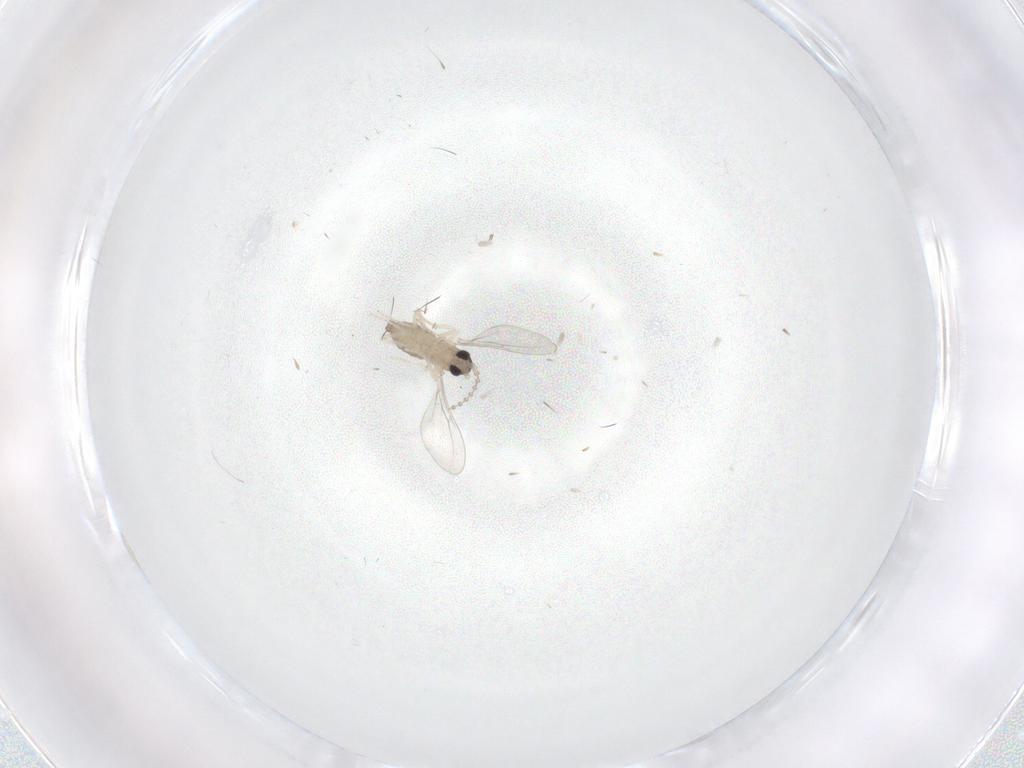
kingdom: Animalia
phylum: Arthropoda
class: Insecta
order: Diptera
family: Cecidomyiidae
